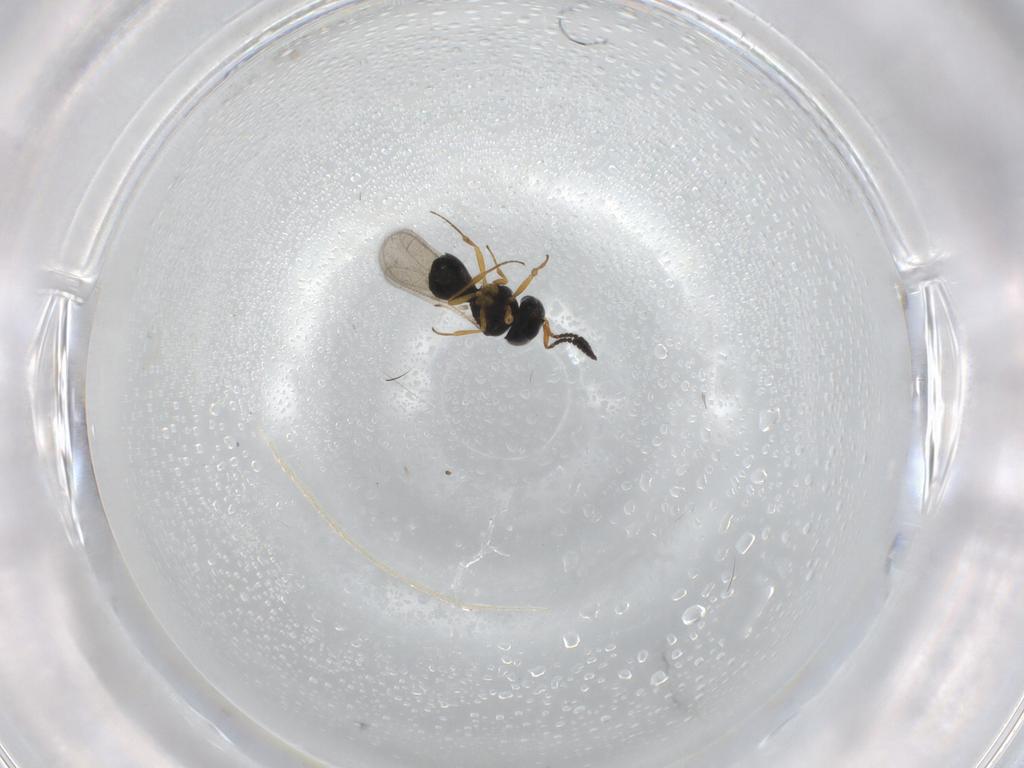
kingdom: Animalia
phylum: Arthropoda
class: Insecta
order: Hymenoptera
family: Scelionidae
